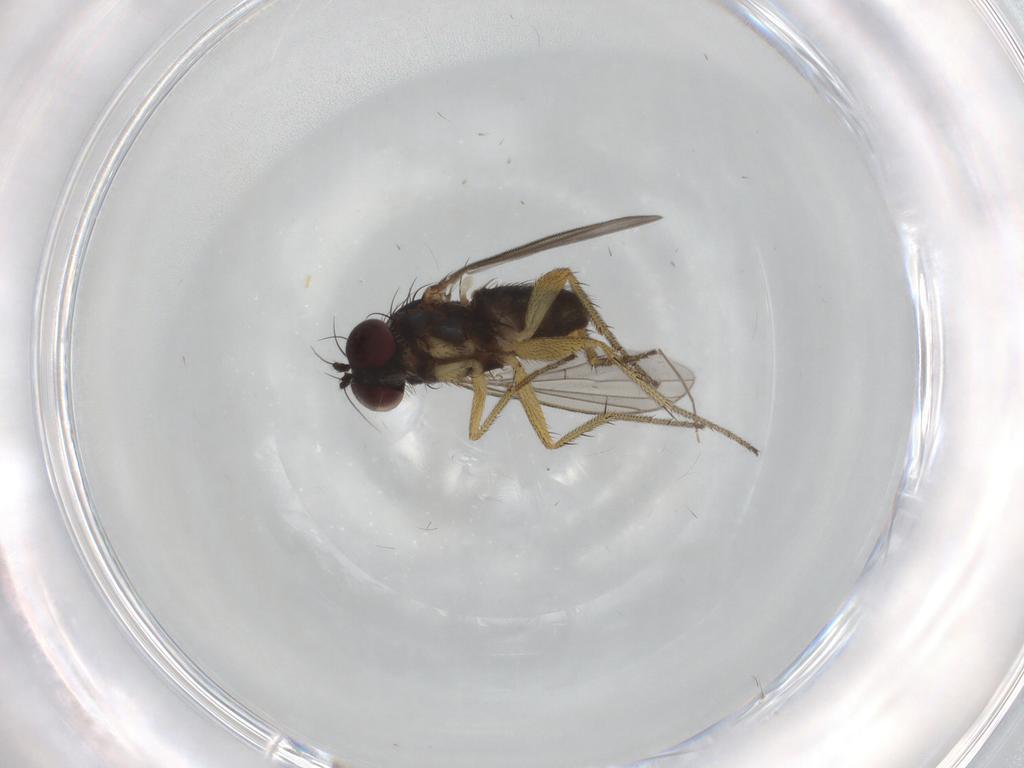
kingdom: Animalia
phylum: Arthropoda
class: Insecta
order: Diptera
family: Dolichopodidae
